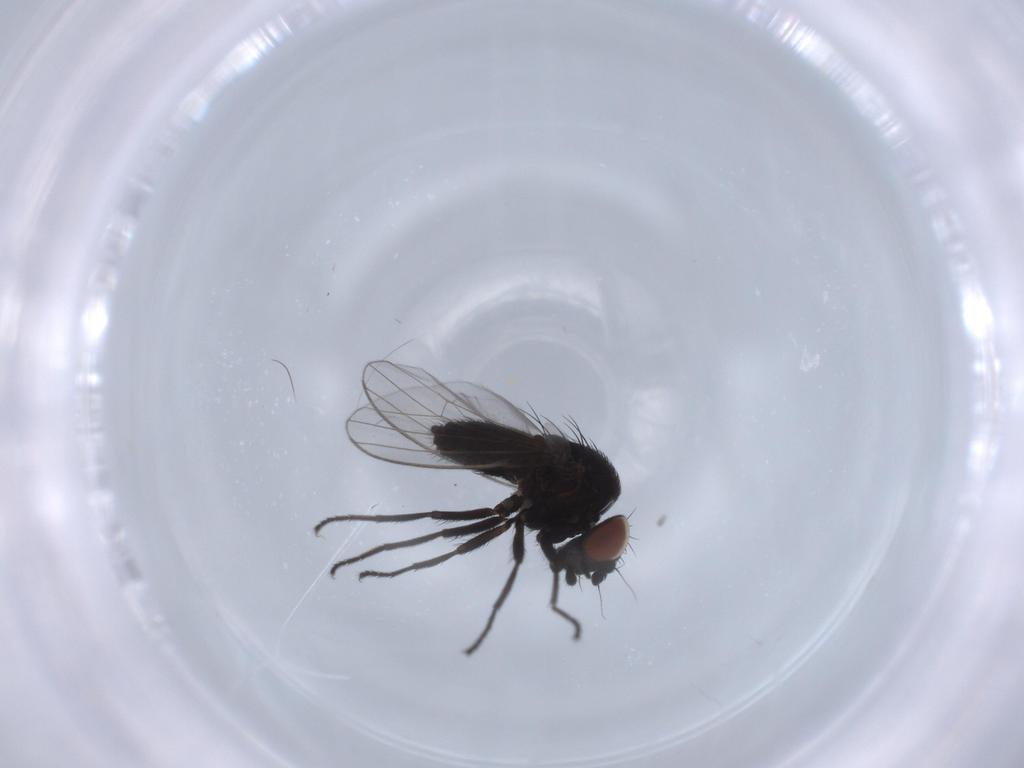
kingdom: Animalia
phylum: Arthropoda
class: Insecta
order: Diptera
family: Milichiidae
